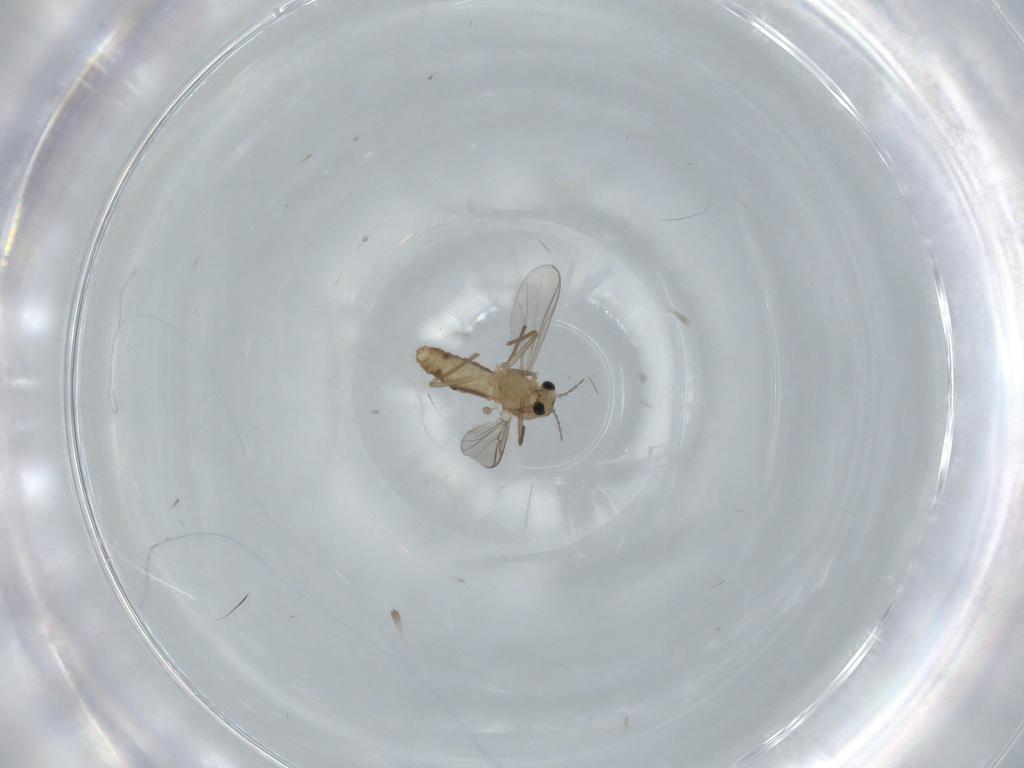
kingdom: Animalia
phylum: Arthropoda
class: Insecta
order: Diptera
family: Chironomidae
